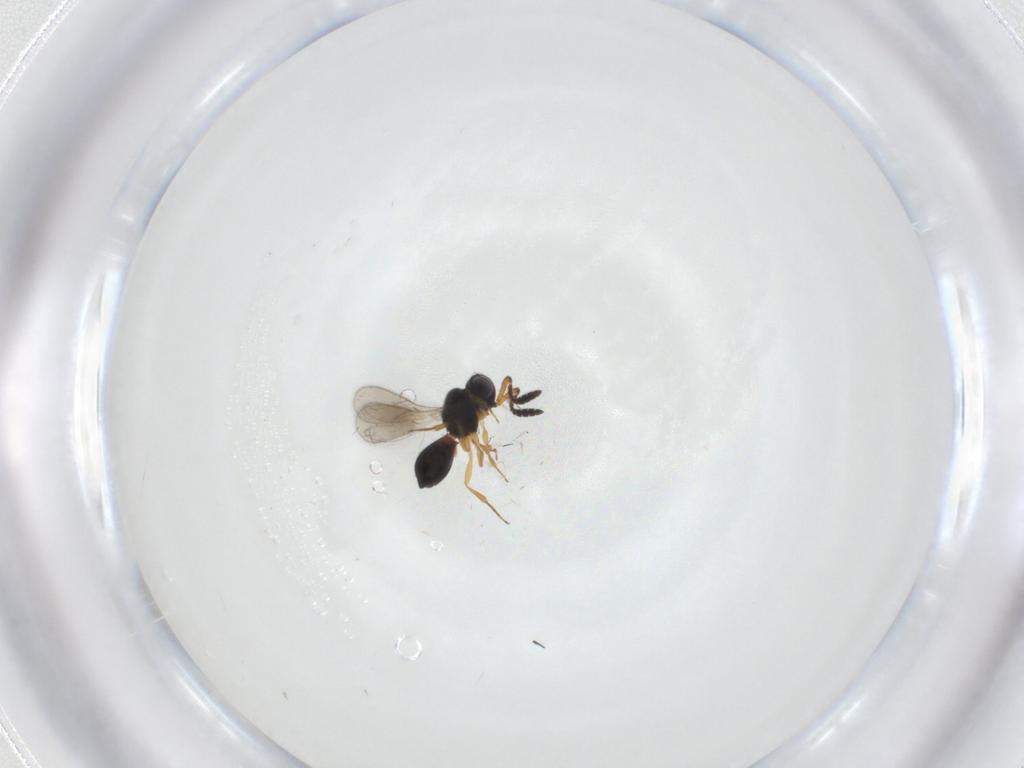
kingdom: Animalia
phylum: Arthropoda
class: Insecta
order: Hymenoptera
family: Scelionidae
